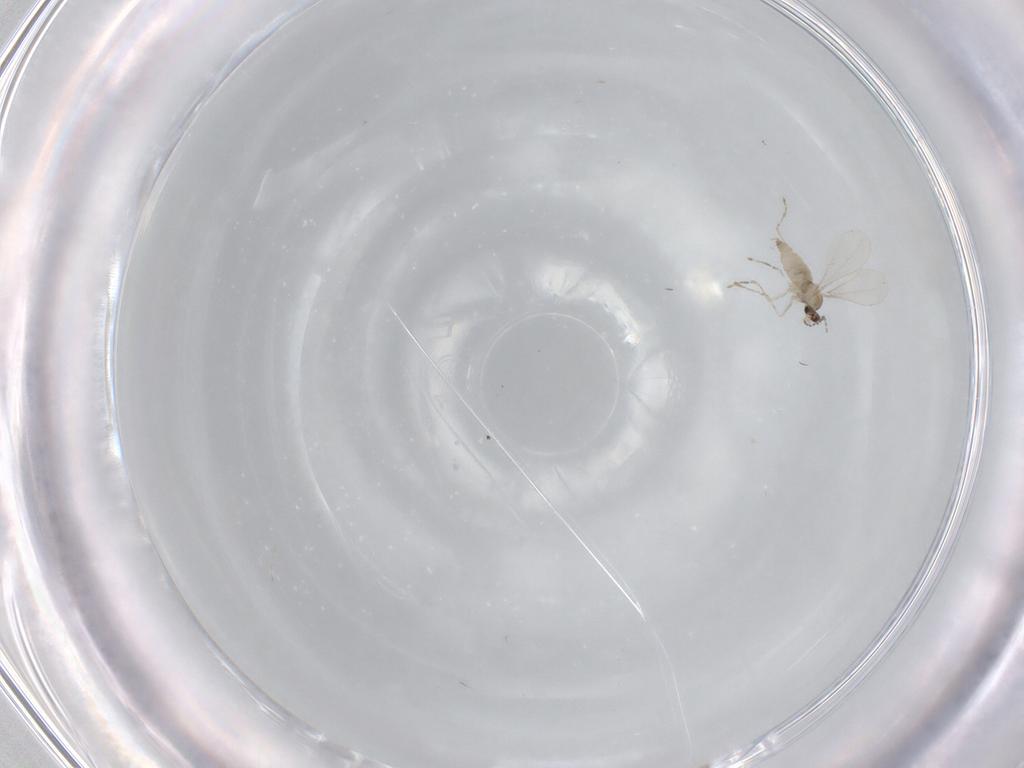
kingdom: Animalia
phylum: Arthropoda
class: Insecta
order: Diptera
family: Cecidomyiidae
